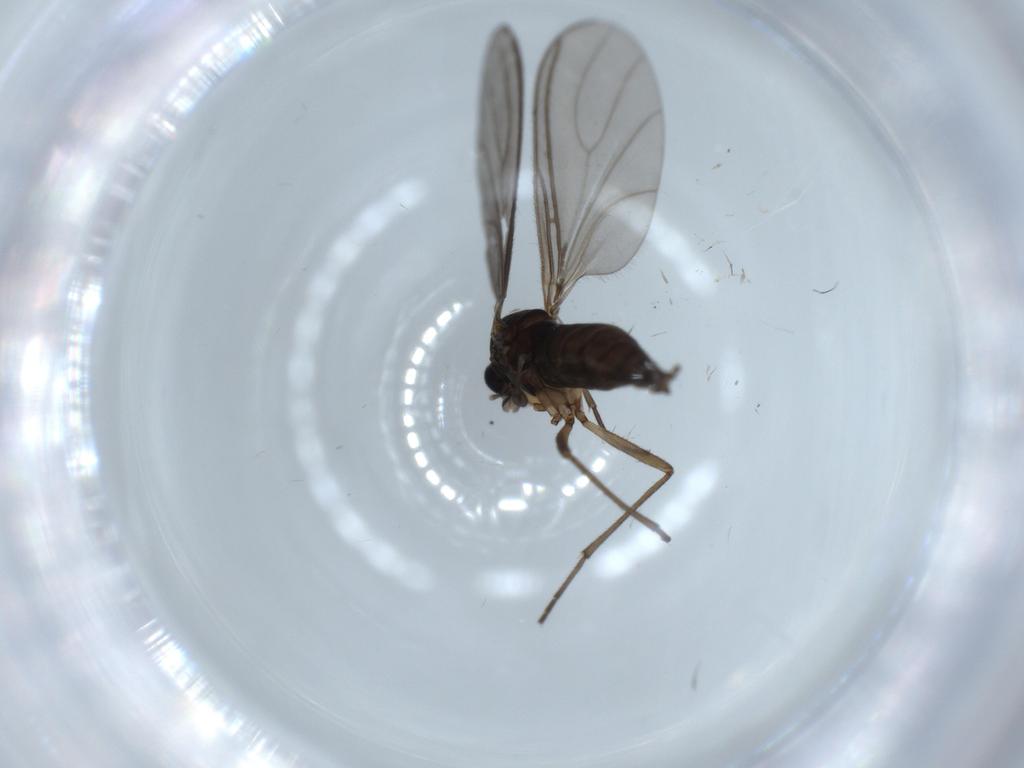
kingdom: Animalia
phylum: Arthropoda
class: Insecta
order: Diptera
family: Sciaridae
